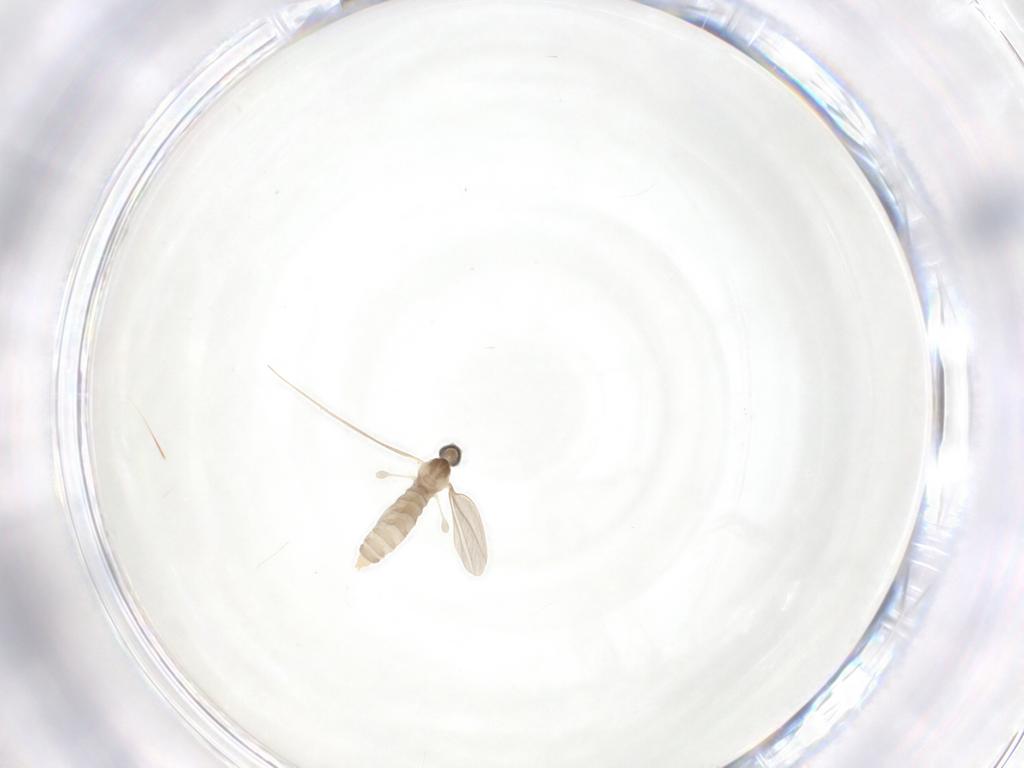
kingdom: Animalia
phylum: Arthropoda
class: Insecta
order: Diptera
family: Cecidomyiidae
